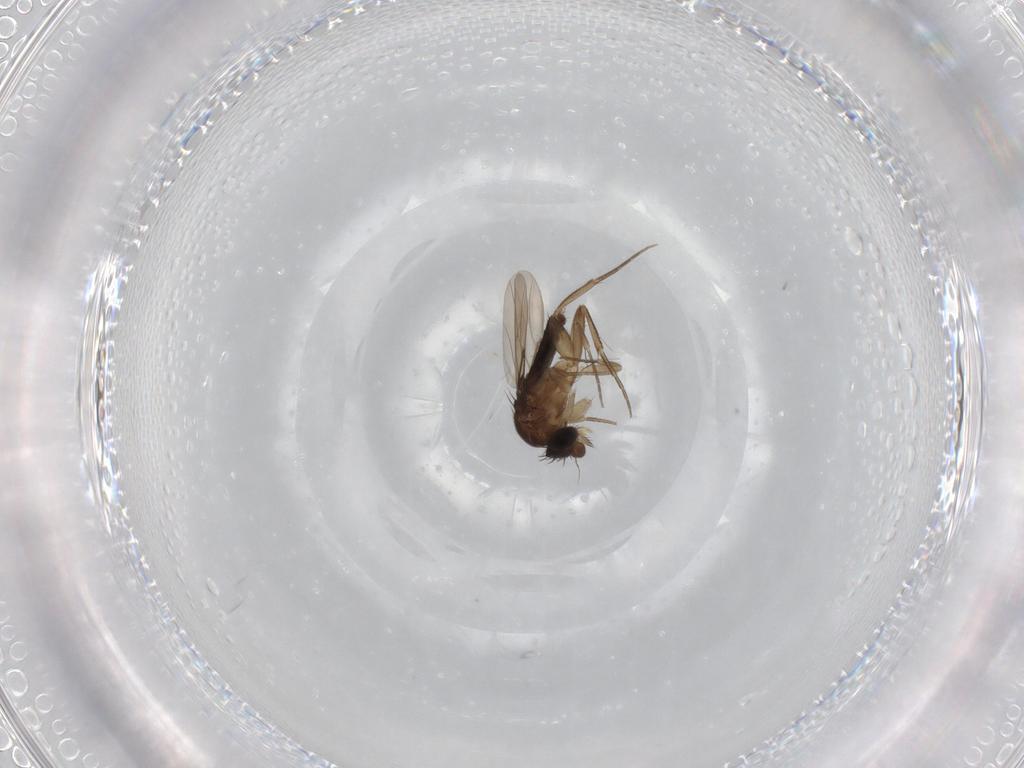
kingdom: Animalia
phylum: Arthropoda
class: Insecta
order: Diptera
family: Phoridae
